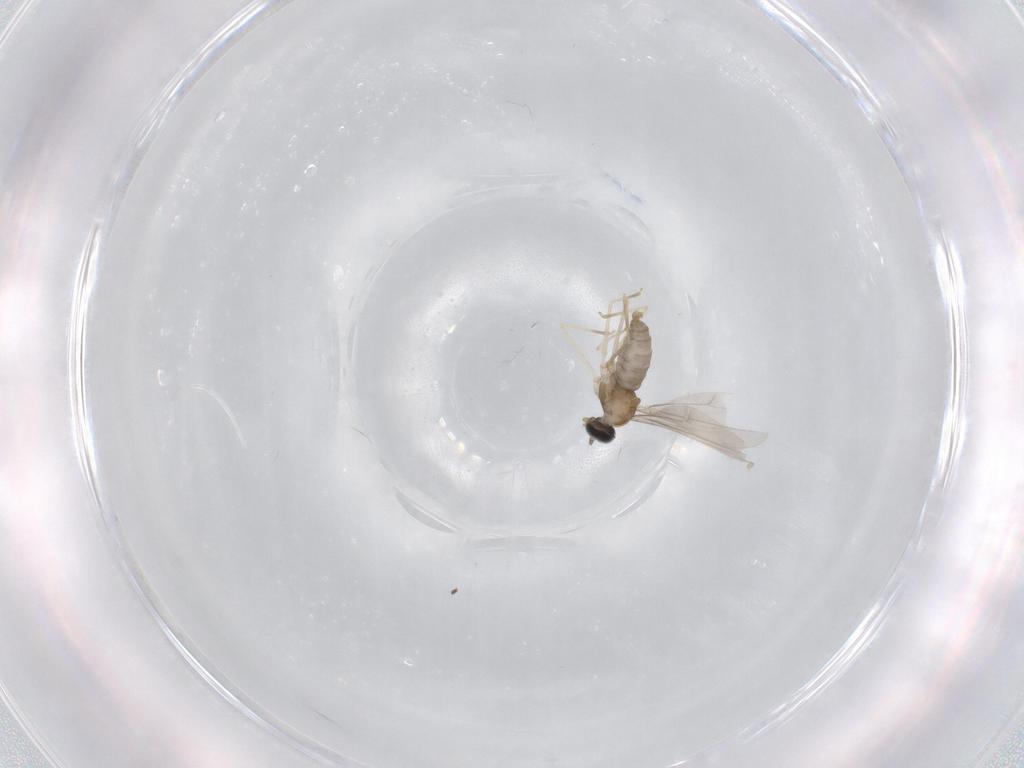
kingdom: Animalia
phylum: Arthropoda
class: Insecta
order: Diptera
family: Cecidomyiidae
